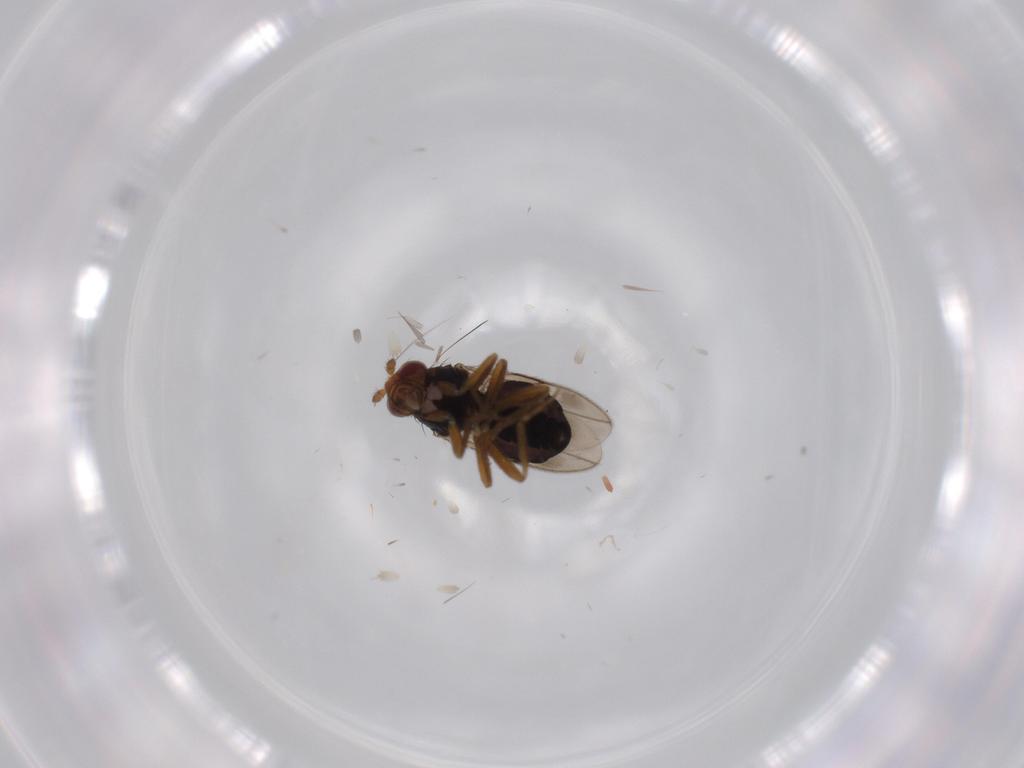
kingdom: Animalia
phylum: Arthropoda
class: Insecta
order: Diptera
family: Phoridae
